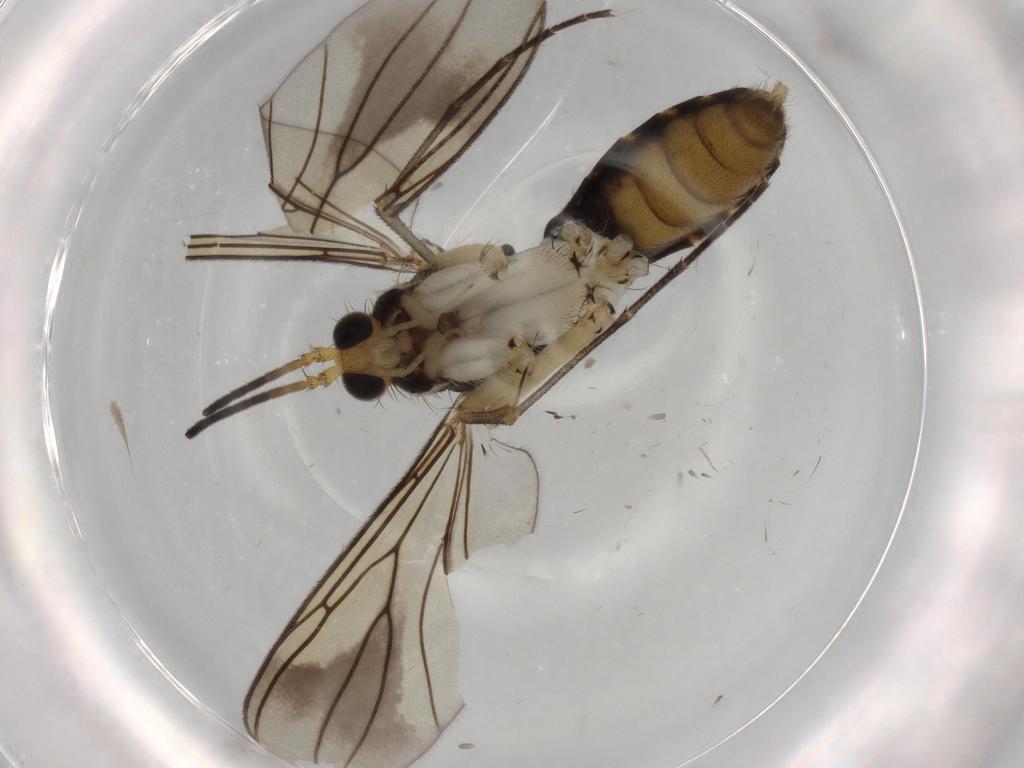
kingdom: Animalia
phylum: Arthropoda
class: Insecta
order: Diptera
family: Mycetophilidae
